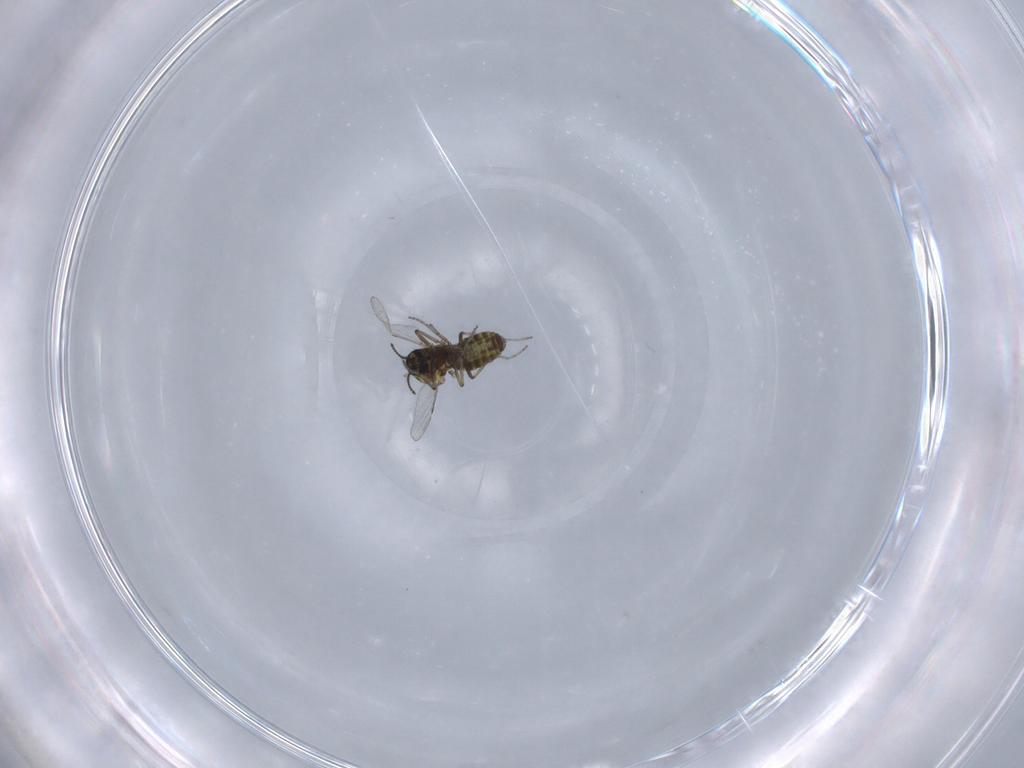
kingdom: Animalia
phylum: Arthropoda
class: Insecta
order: Diptera
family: Ceratopogonidae
